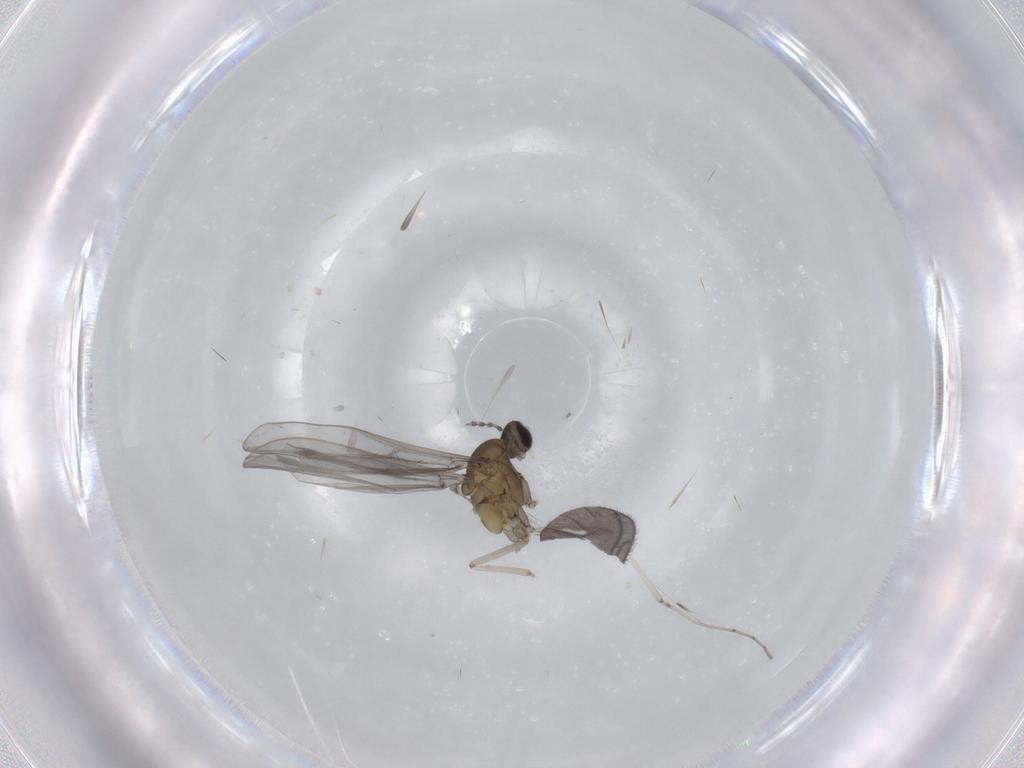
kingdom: Animalia
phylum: Arthropoda
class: Insecta
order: Diptera
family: Cecidomyiidae
